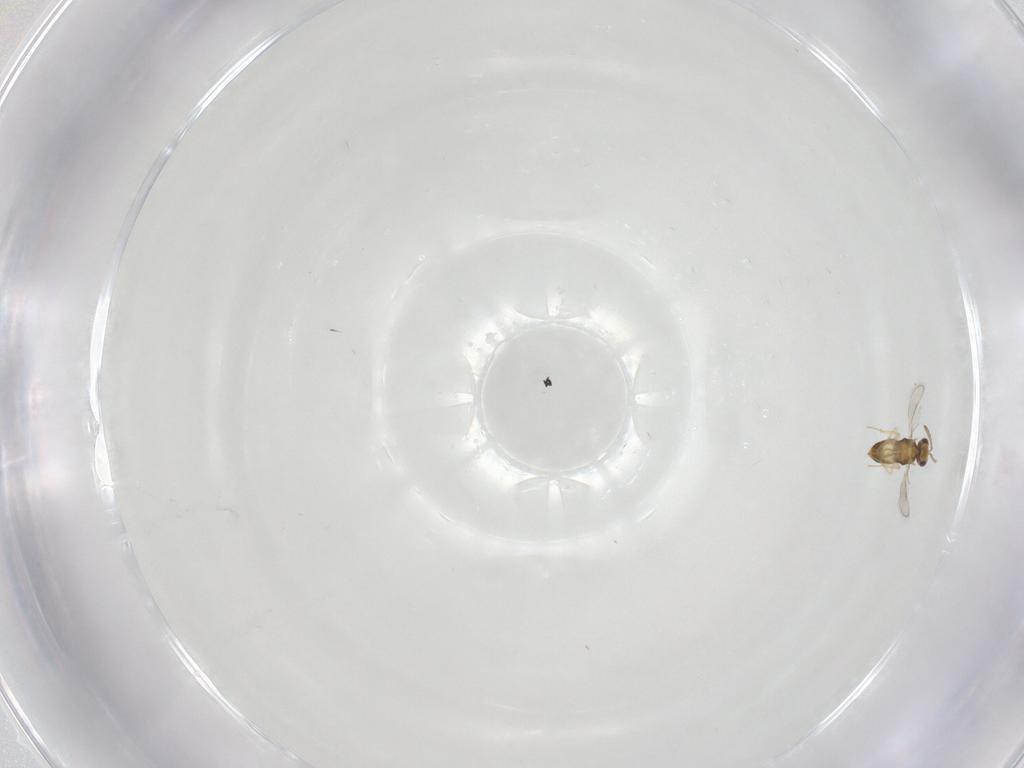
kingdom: Animalia
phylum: Arthropoda
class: Insecta
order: Hymenoptera
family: Aphelinidae
